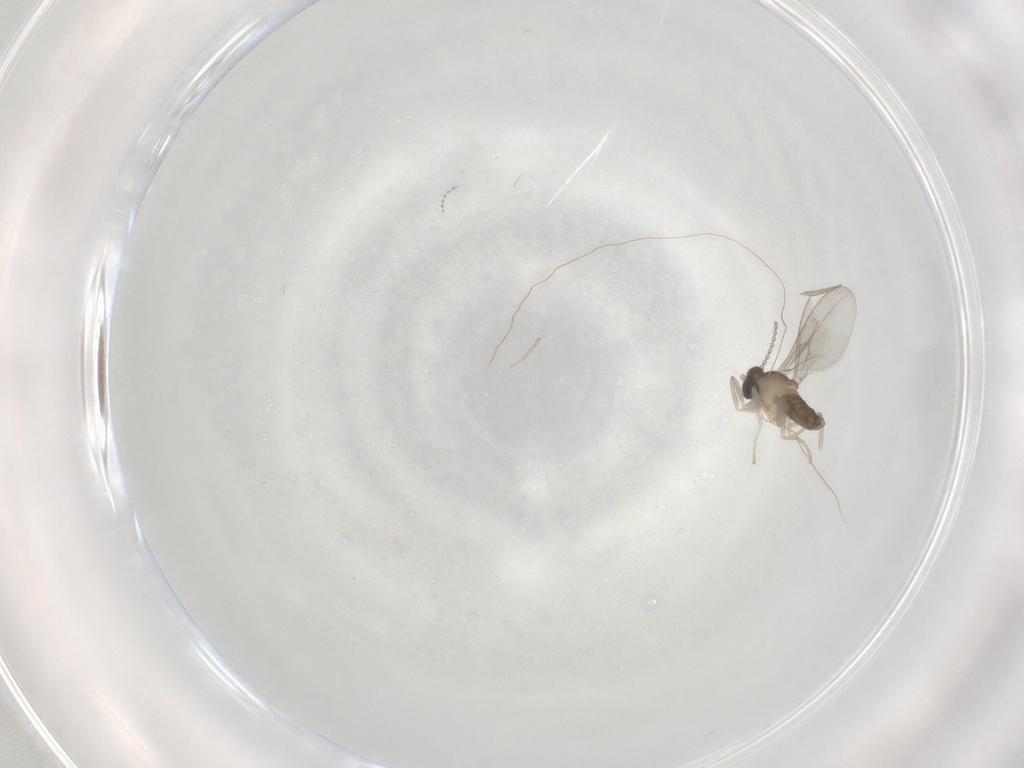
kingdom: Animalia
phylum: Arthropoda
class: Insecta
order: Diptera
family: Cecidomyiidae
